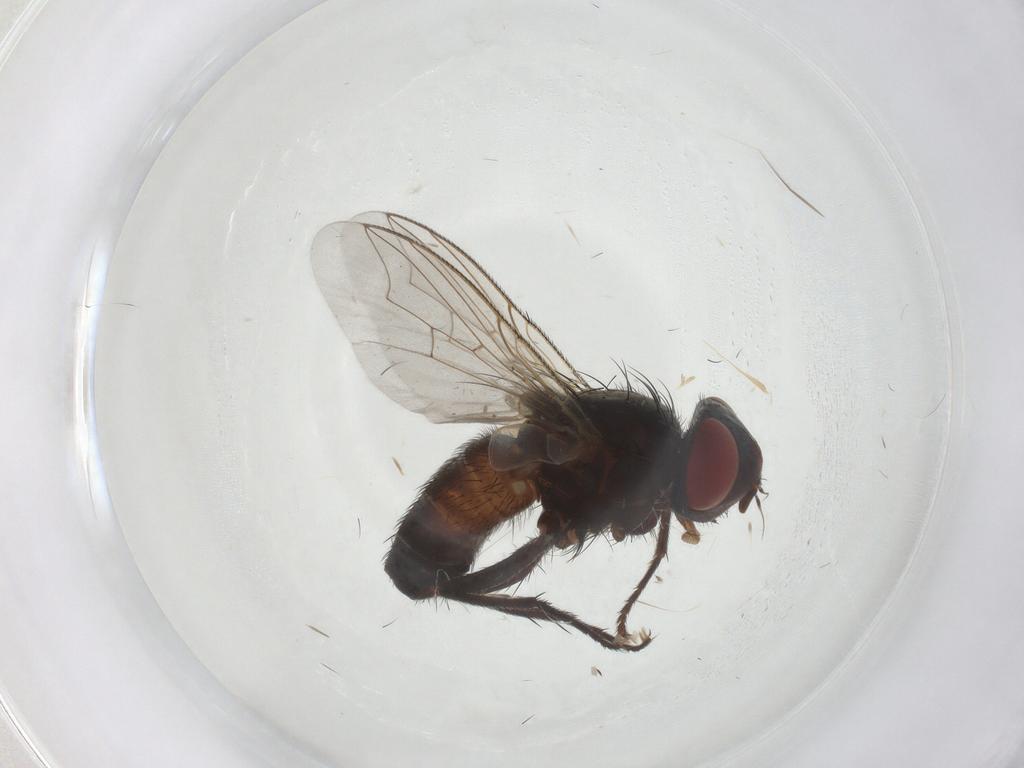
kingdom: Animalia
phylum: Arthropoda
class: Insecta
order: Diptera
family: Sarcophagidae
